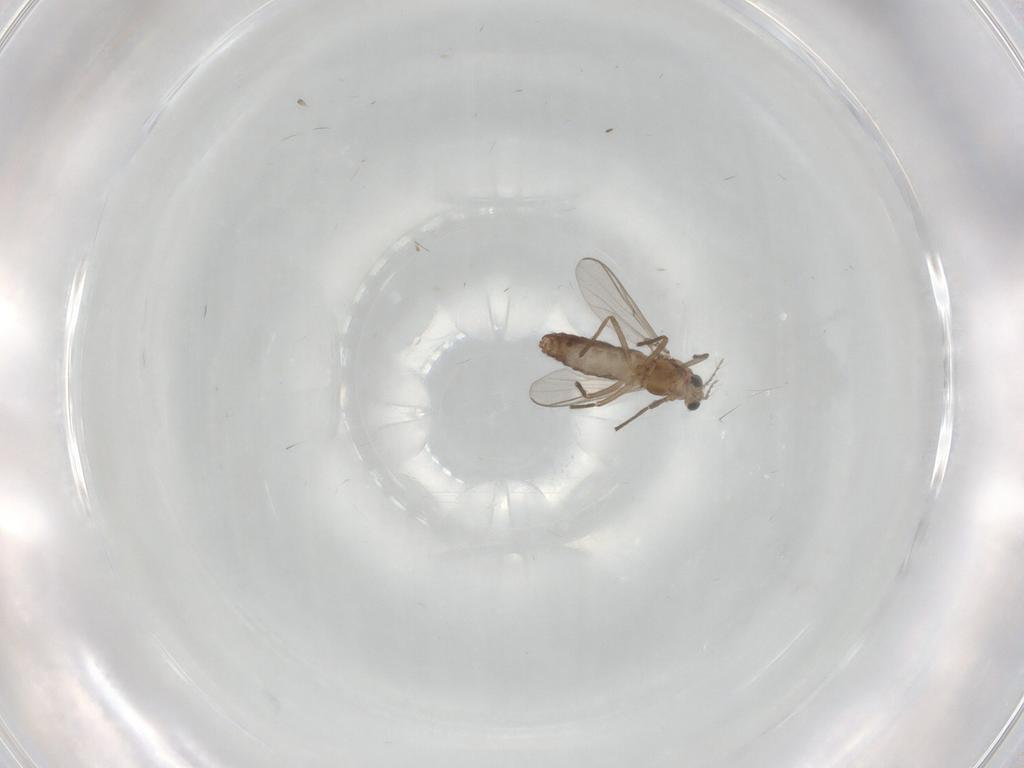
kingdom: Animalia
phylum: Arthropoda
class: Insecta
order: Diptera
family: Chironomidae
